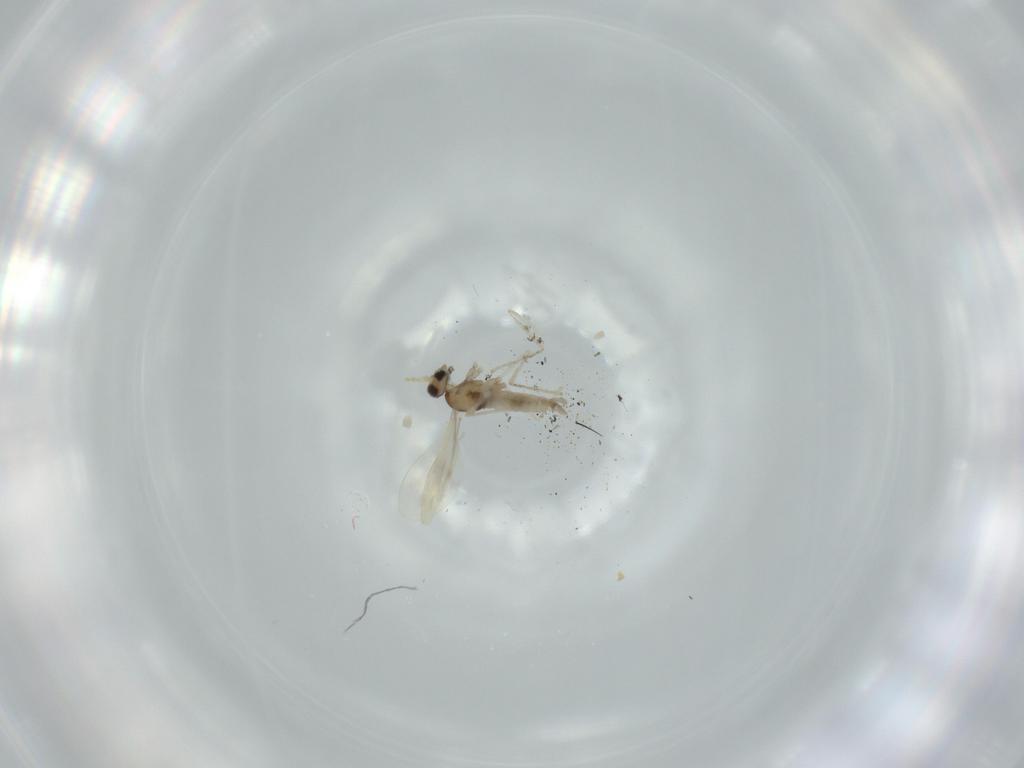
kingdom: Animalia
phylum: Arthropoda
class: Insecta
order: Diptera
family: Cecidomyiidae
